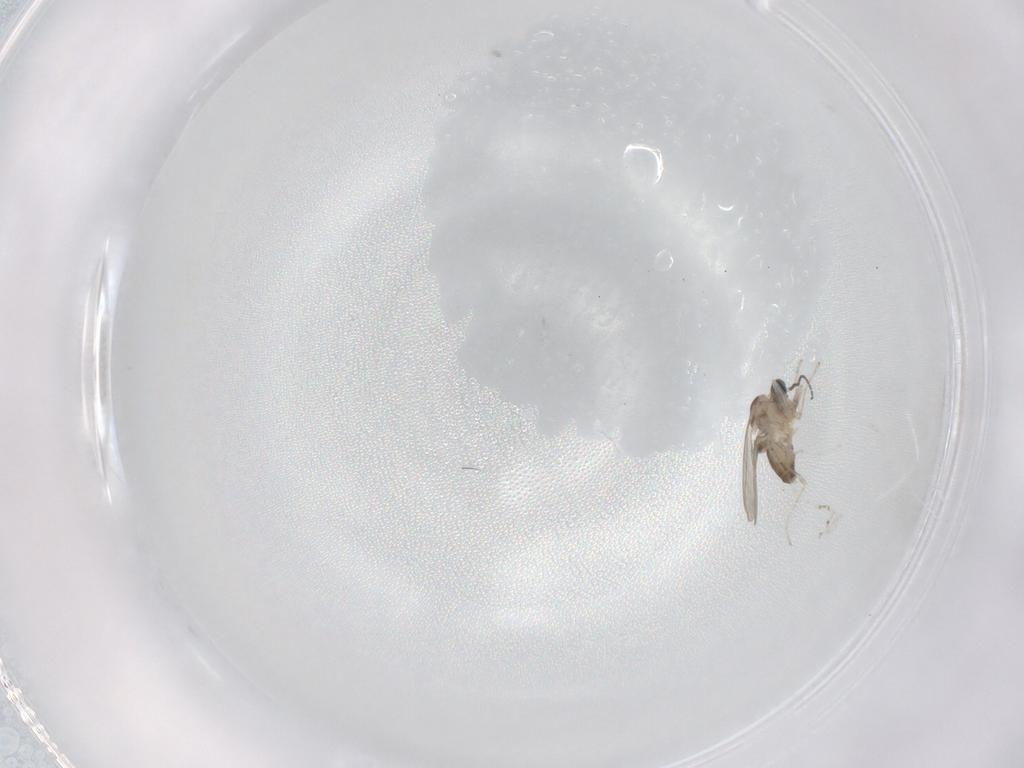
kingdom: Animalia
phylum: Arthropoda
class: Insecta
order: Diptera
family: Cecidomyiidae
